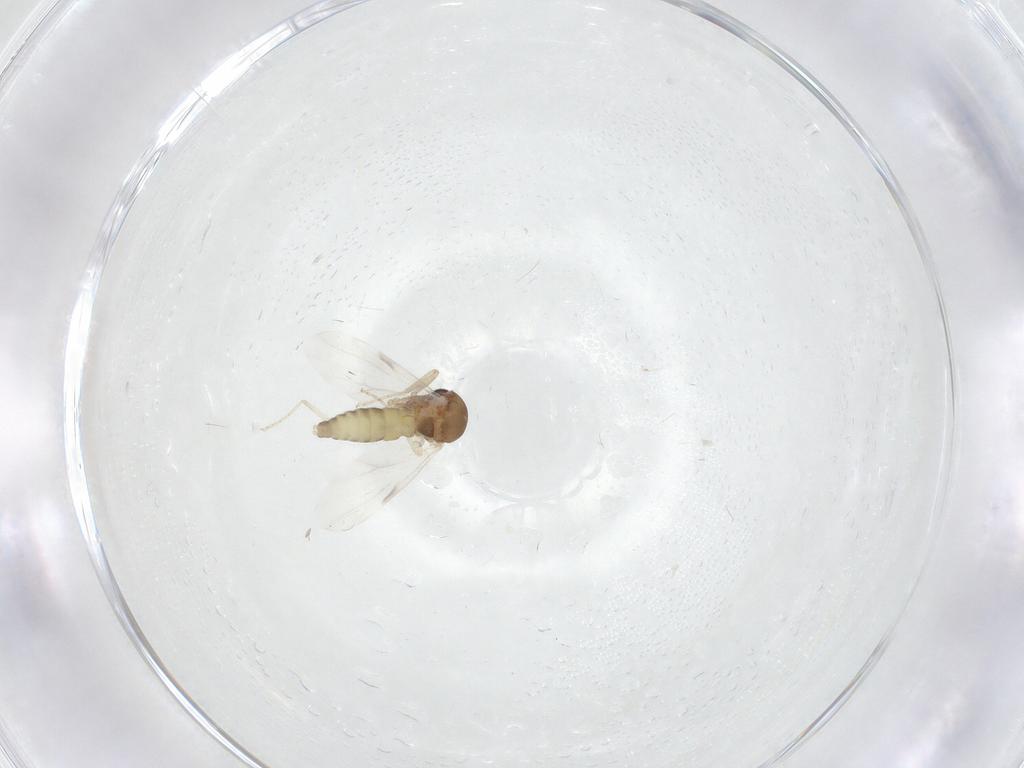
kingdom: Animalia
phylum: Arthropoda
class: Insecta
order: Diptera
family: Ceratopogonidae
